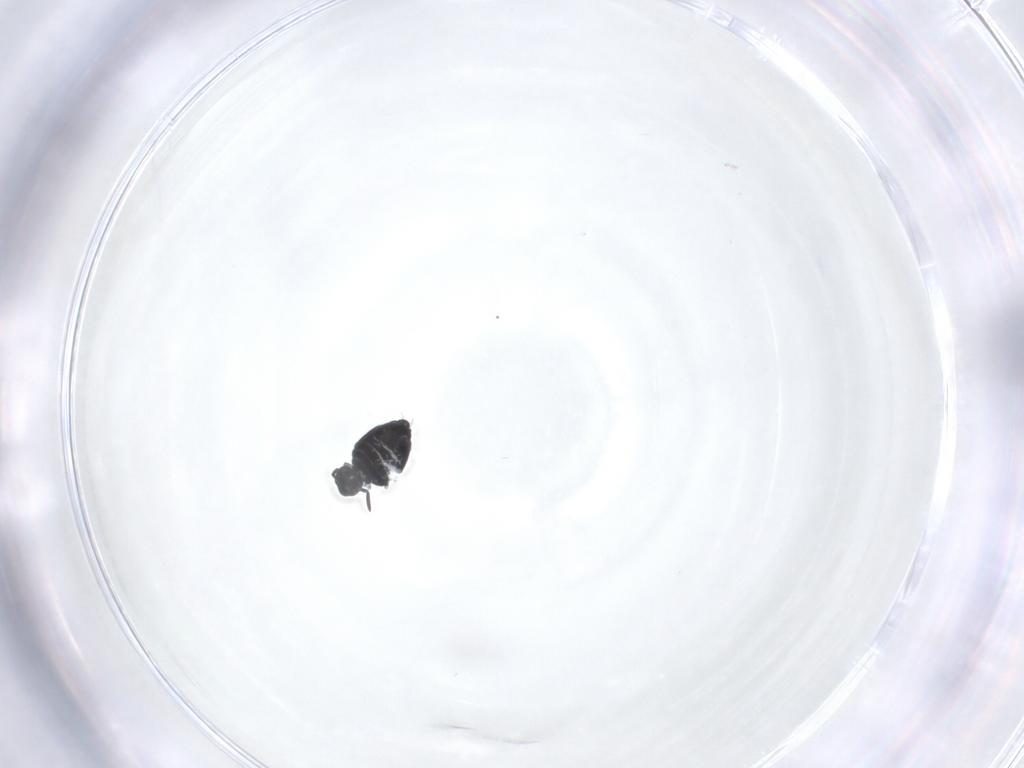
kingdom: Animalia
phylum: Arthropoda
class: Collembola
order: Symphypleona
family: Katiannidae
